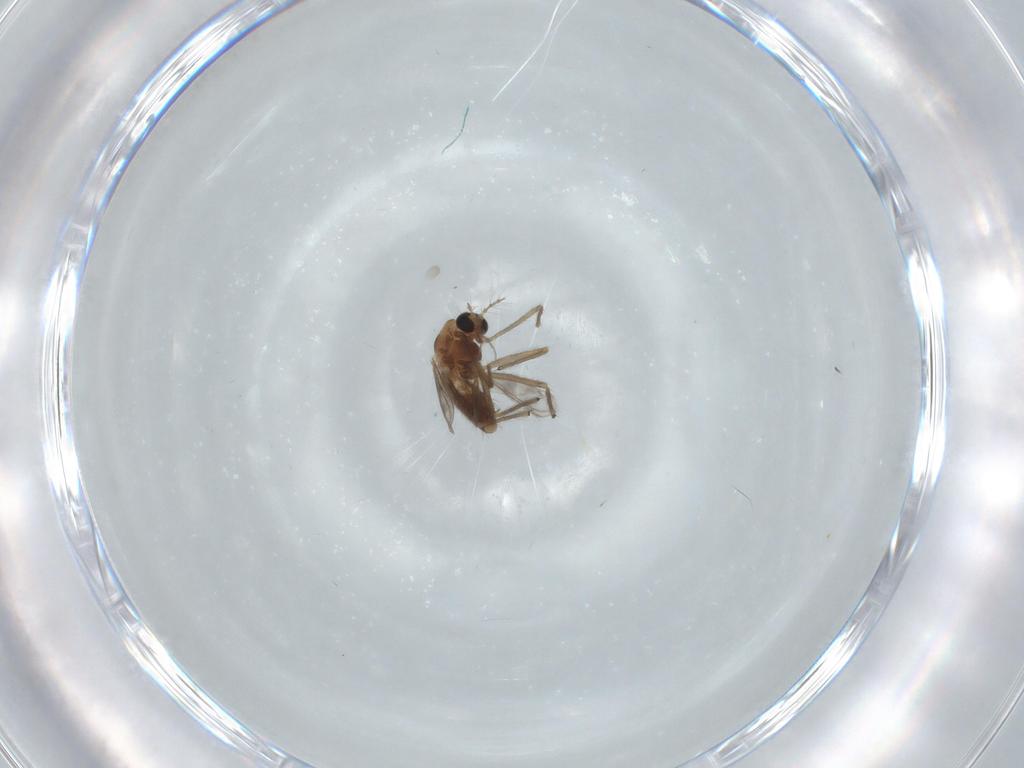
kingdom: Animalia
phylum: Arthropoda
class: Insecta
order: Diptera
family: Chironomidae
